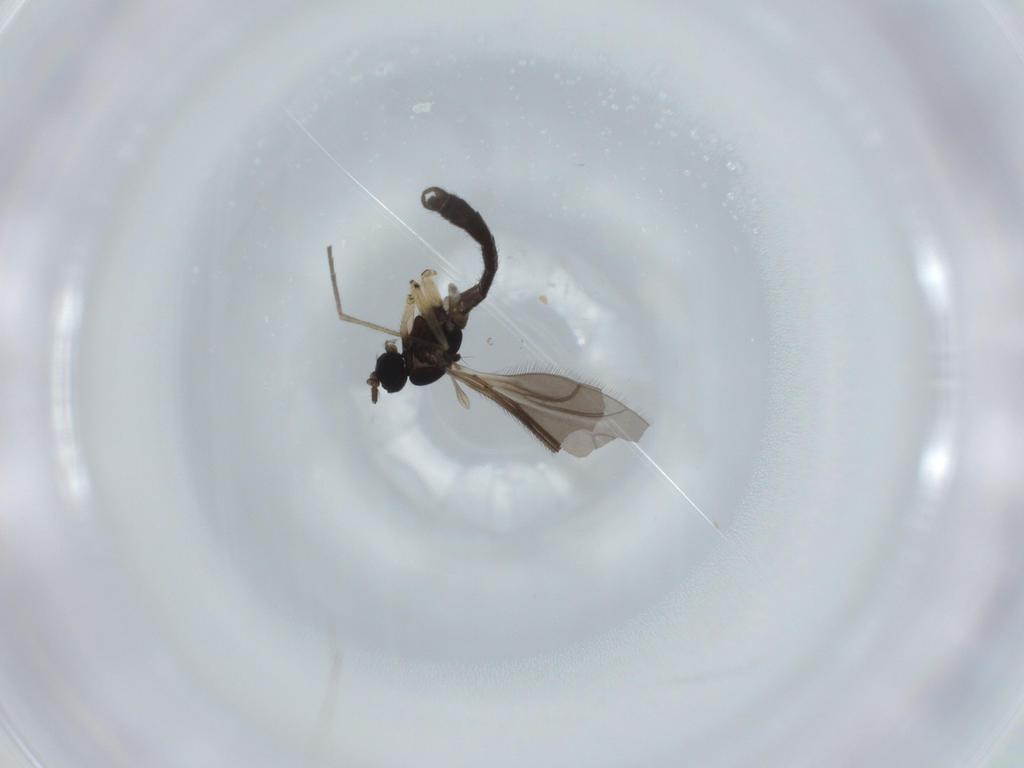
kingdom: Animalia
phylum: Arthropoda
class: Insecta
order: Diptera
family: Sciaridae
